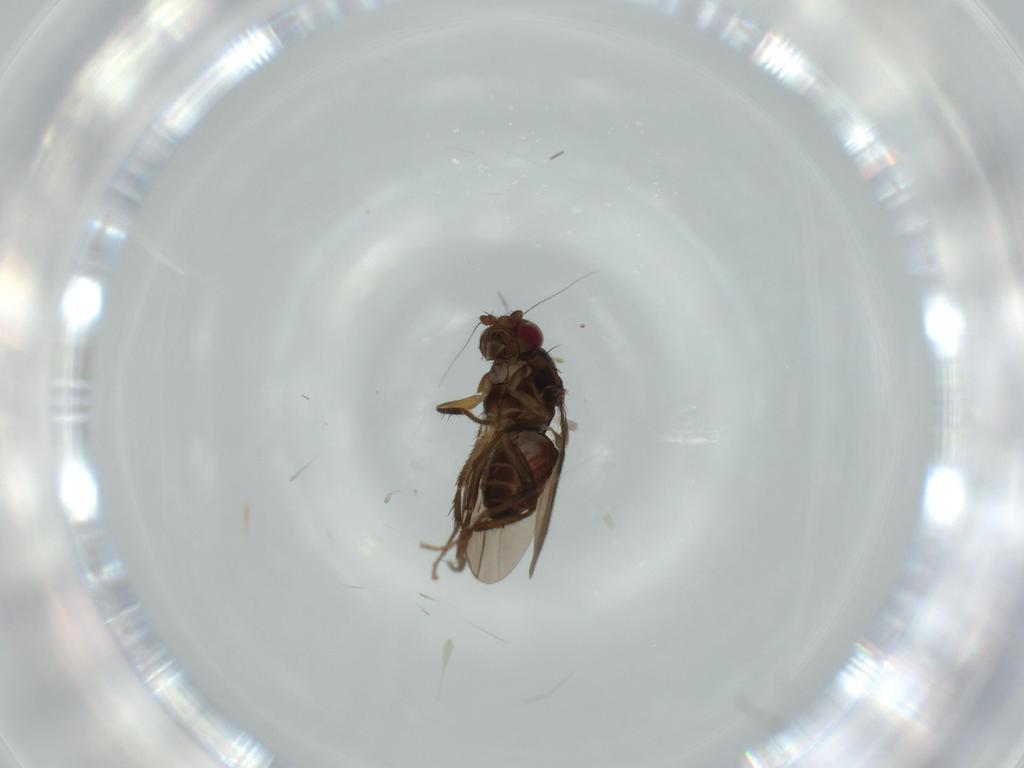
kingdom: Animalia
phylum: Arthropoda
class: Insecta
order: Diptera
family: Ceratopogonidae
